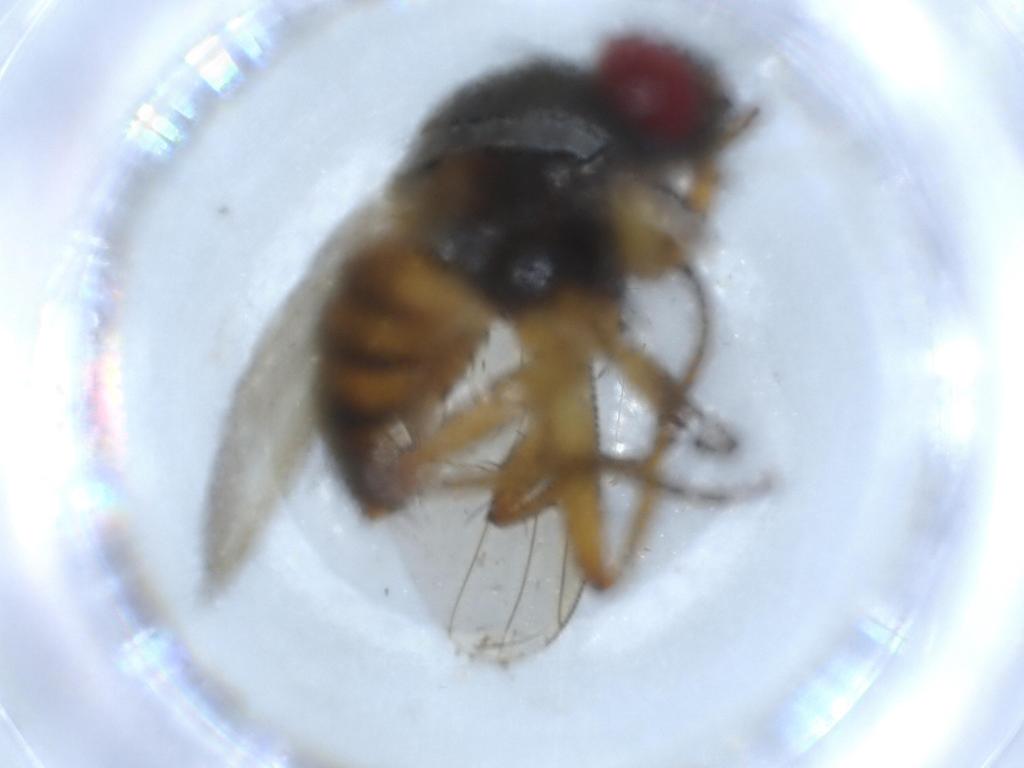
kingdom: Animalia
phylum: Arthropoda
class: Insecta
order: Diptera
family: Muscidae
